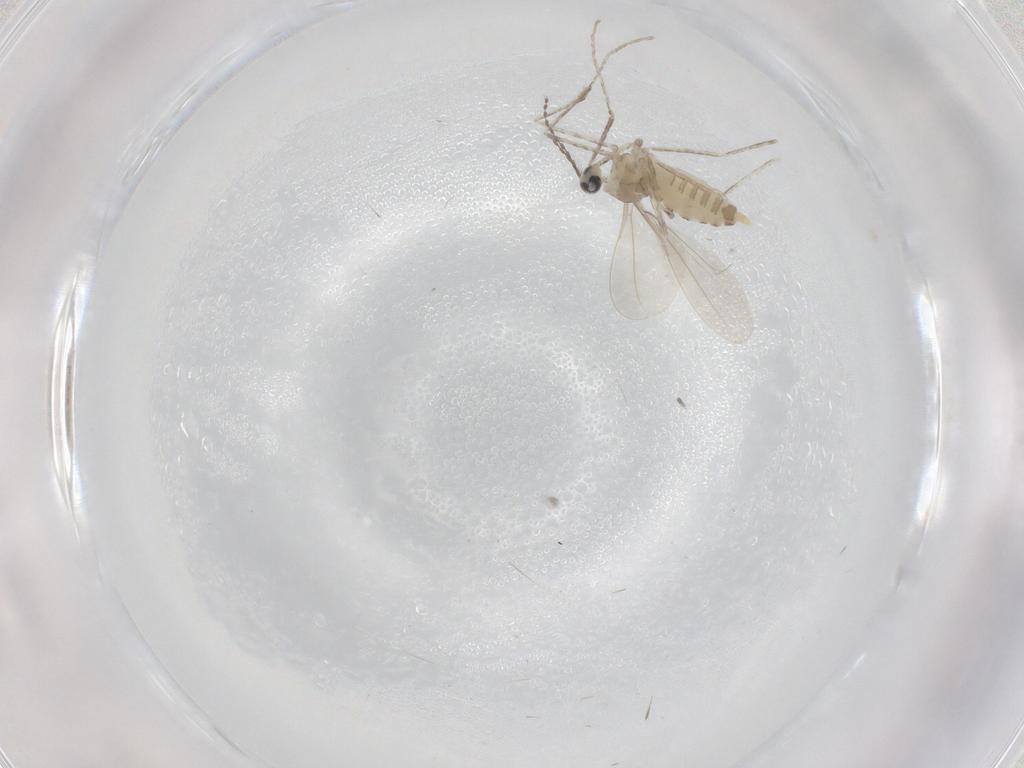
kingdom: Animalia
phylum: Arthropoda
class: Insecta
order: Diptera
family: Cecidomyiidae
